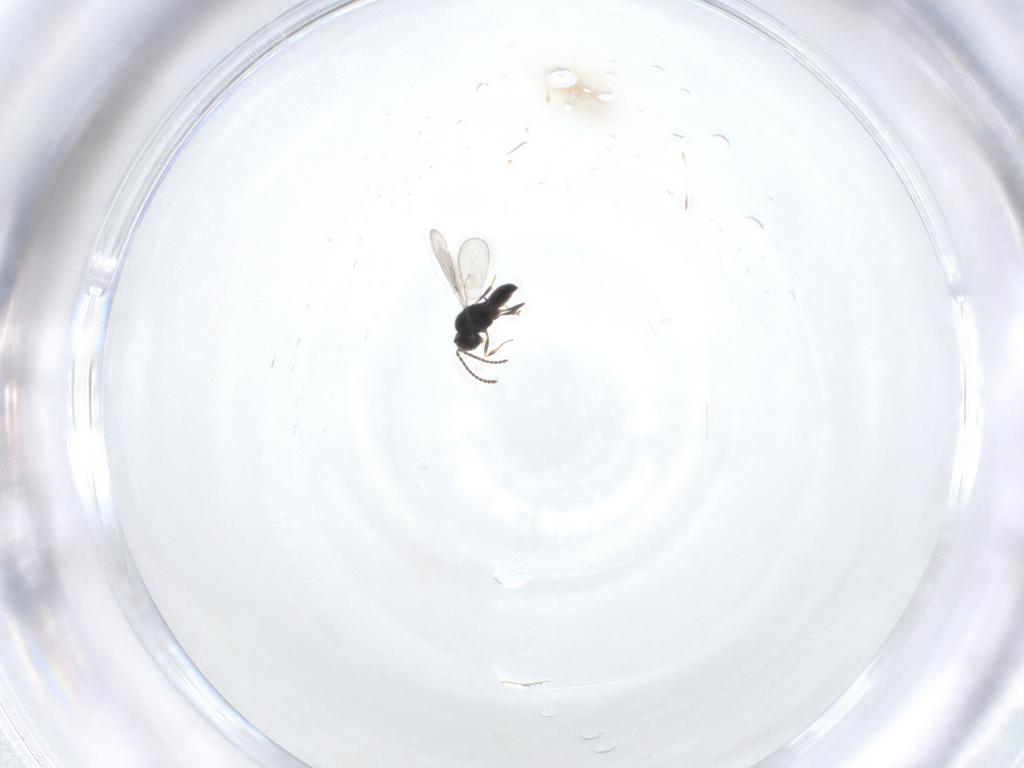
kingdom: Animalia
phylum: Arthropoda
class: Insecta
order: Hymenoptera
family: Scelionidae
